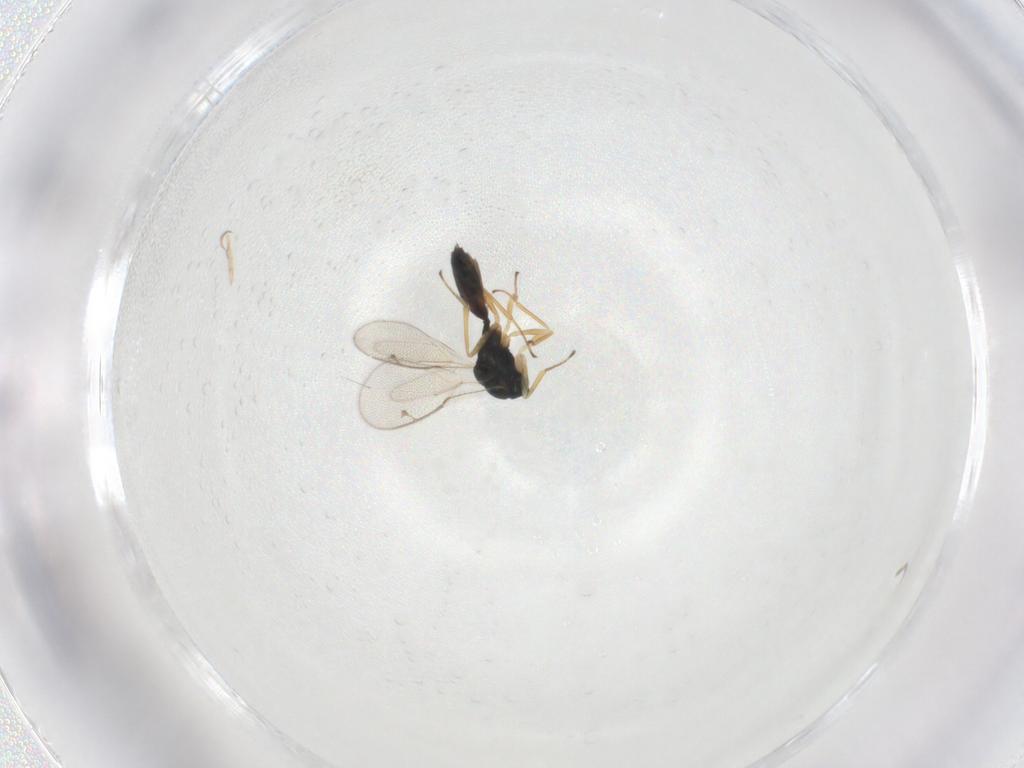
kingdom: Animalia
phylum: Arthropoda
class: Insecta
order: Hymenoptera
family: Pteromalidae
